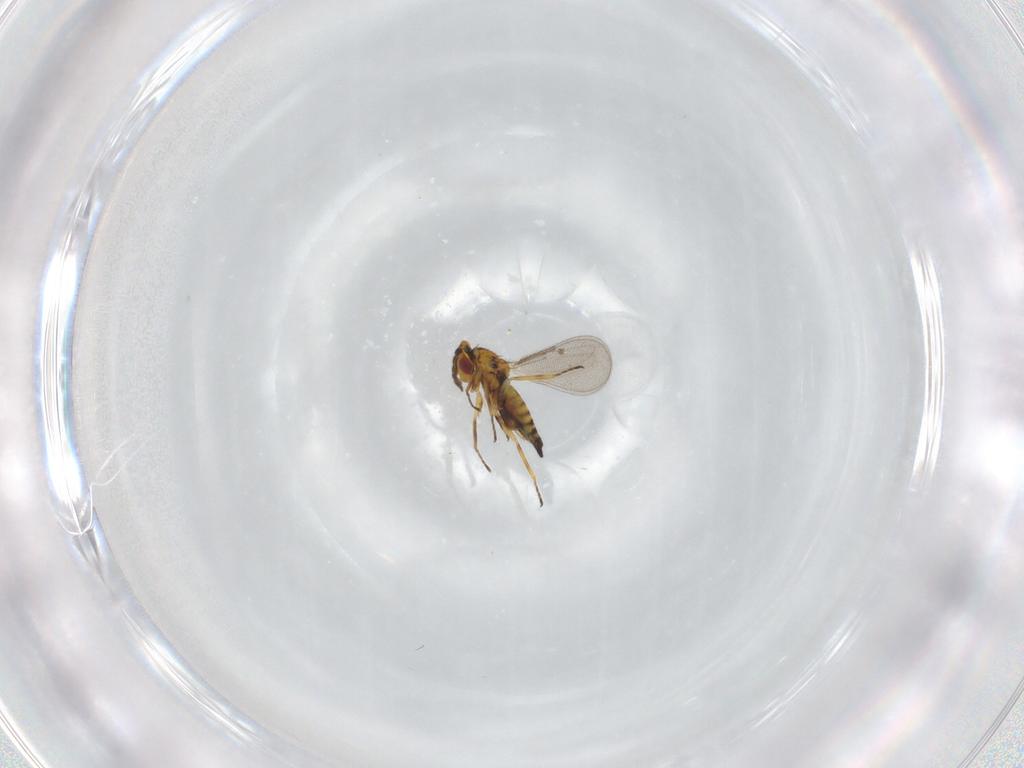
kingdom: Animalia
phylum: Arthropoda
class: Insecta
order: Hymenoptera
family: Eulophidae
